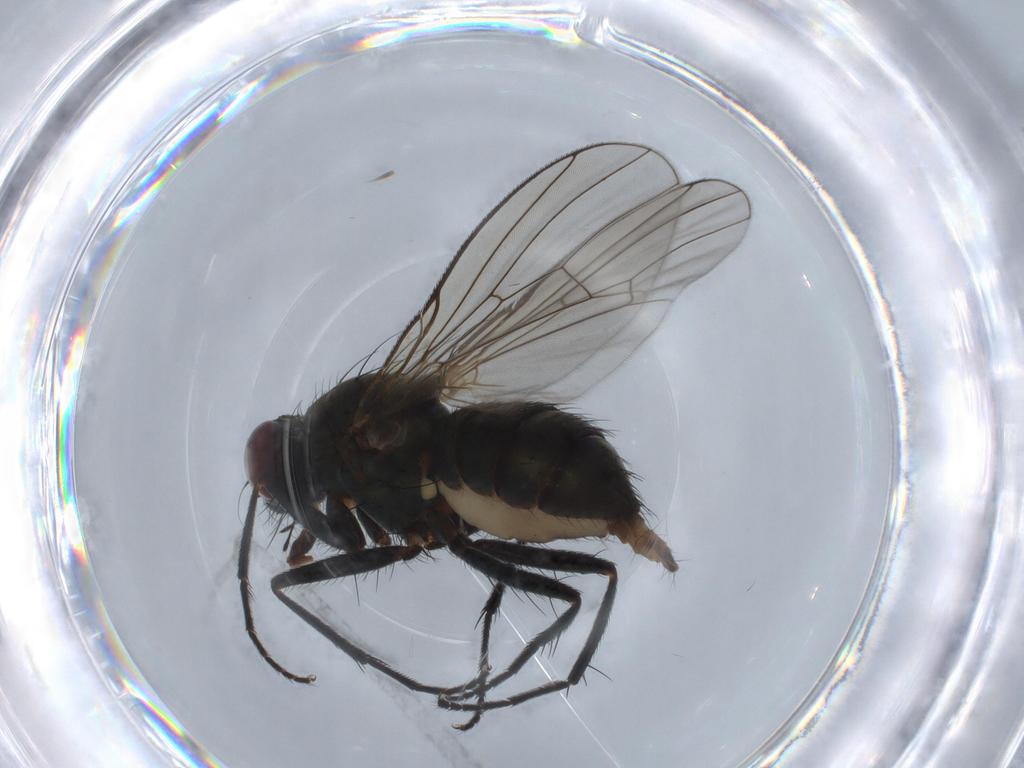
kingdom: Animalia
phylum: Arthropoda
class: Insecta
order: Diptera
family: Muscidae
